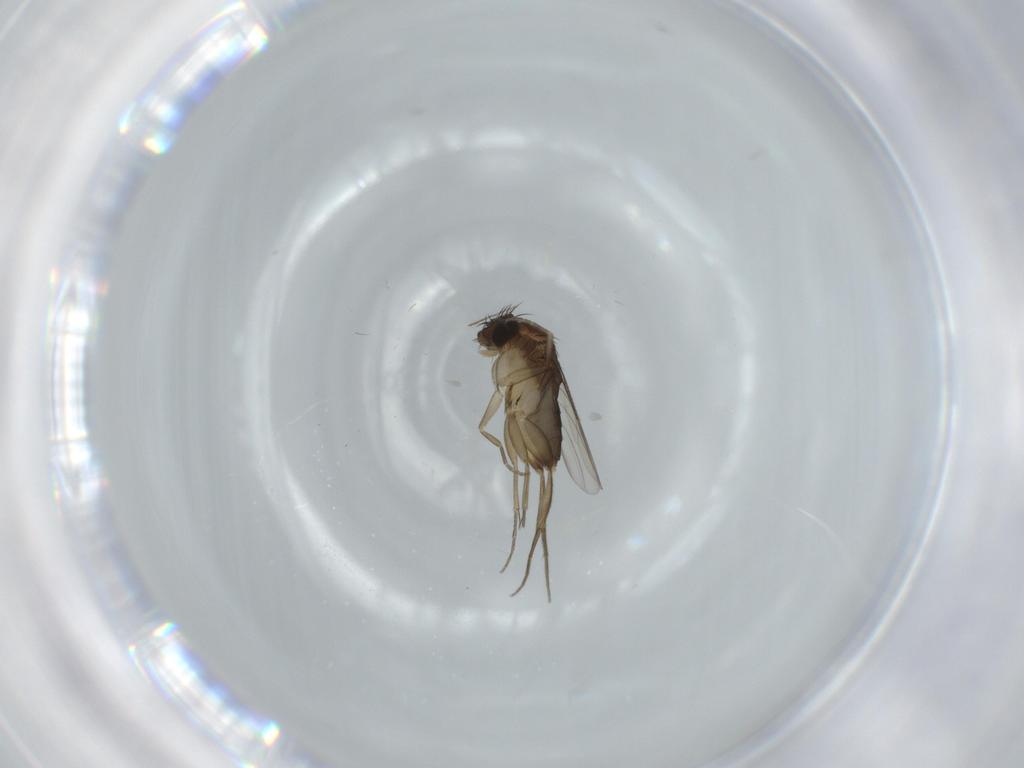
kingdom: Animalia
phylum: Arthropoda
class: Insecta
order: Diptera
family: Phoridae
